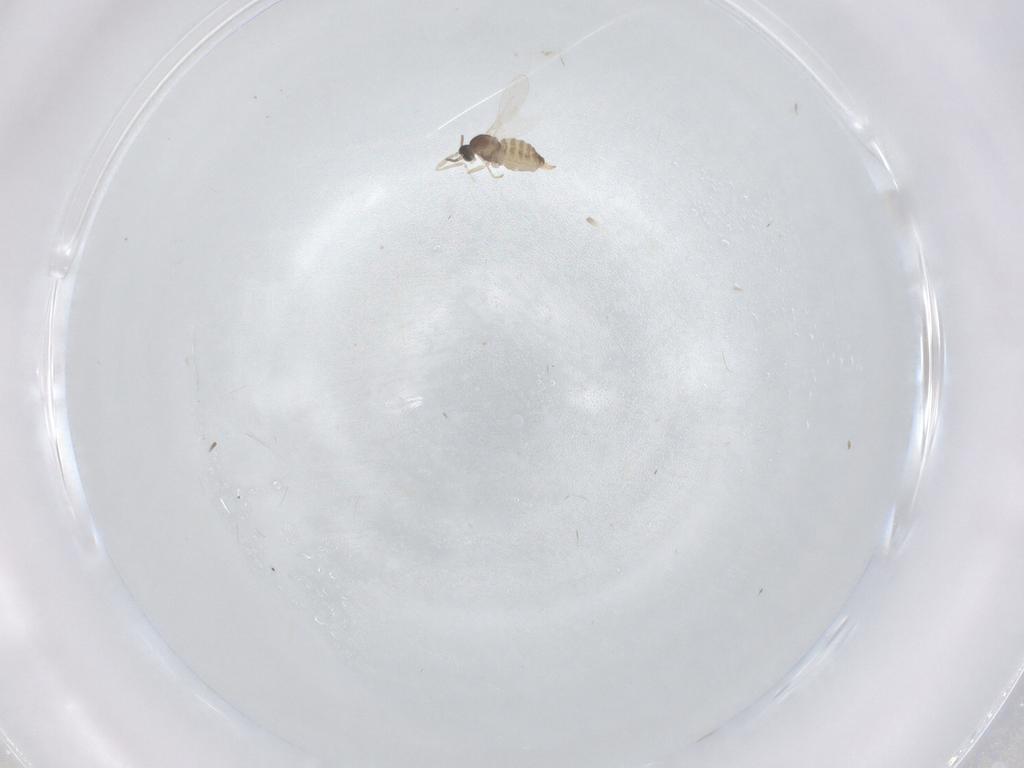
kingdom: Animalia
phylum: Arthropoda
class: Insecta
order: Diptera
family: Cecidomyiidae
